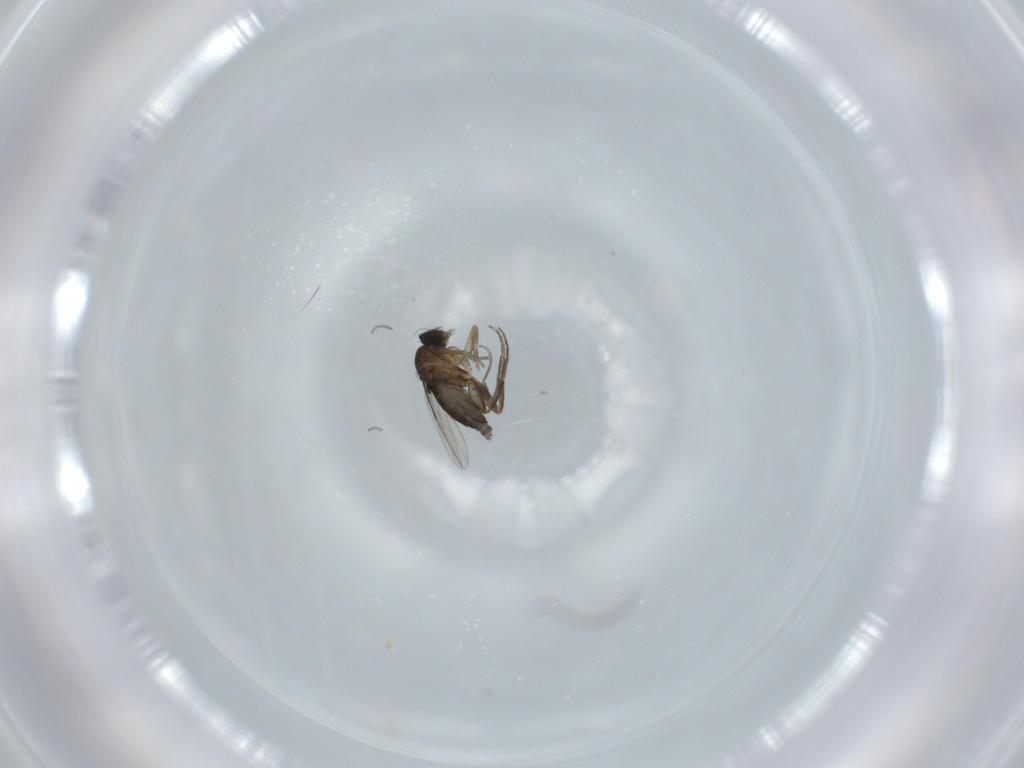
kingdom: Animalia
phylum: Arthropoda
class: Insecta
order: Diptera
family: Phoridae
